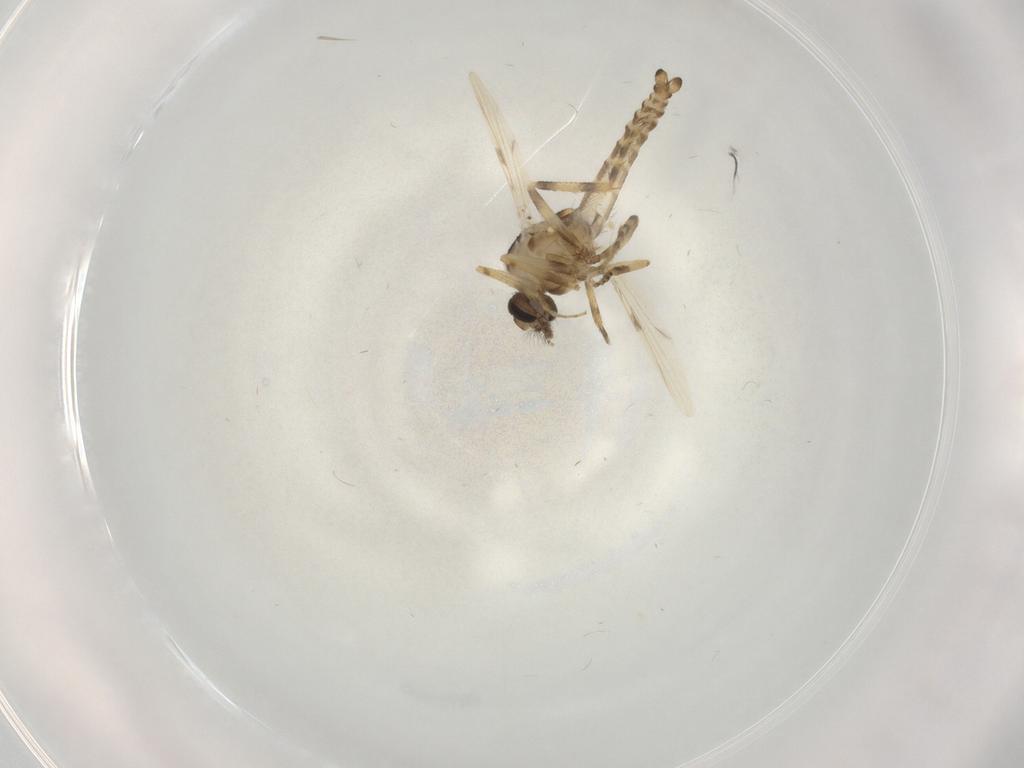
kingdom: Animalia
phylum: Arthropoda
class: Insecta
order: Diptera
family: Ceratopogonidae
